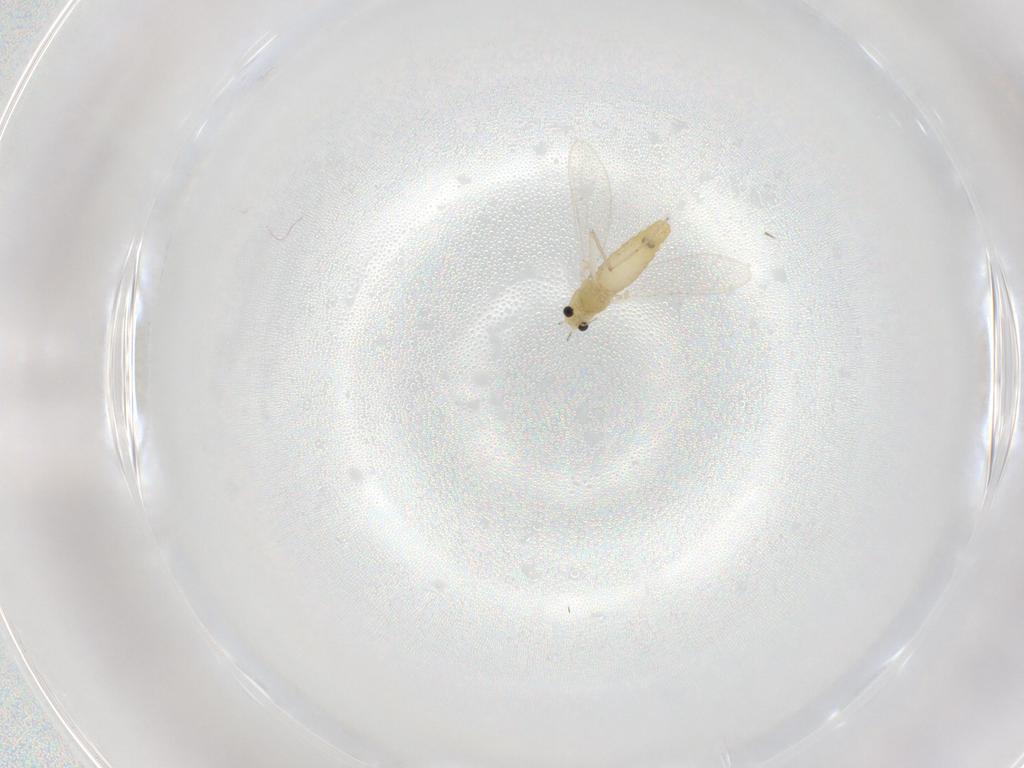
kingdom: Animalia
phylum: Arthropoda
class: Insecta
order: Diptera
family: Chironomidae
